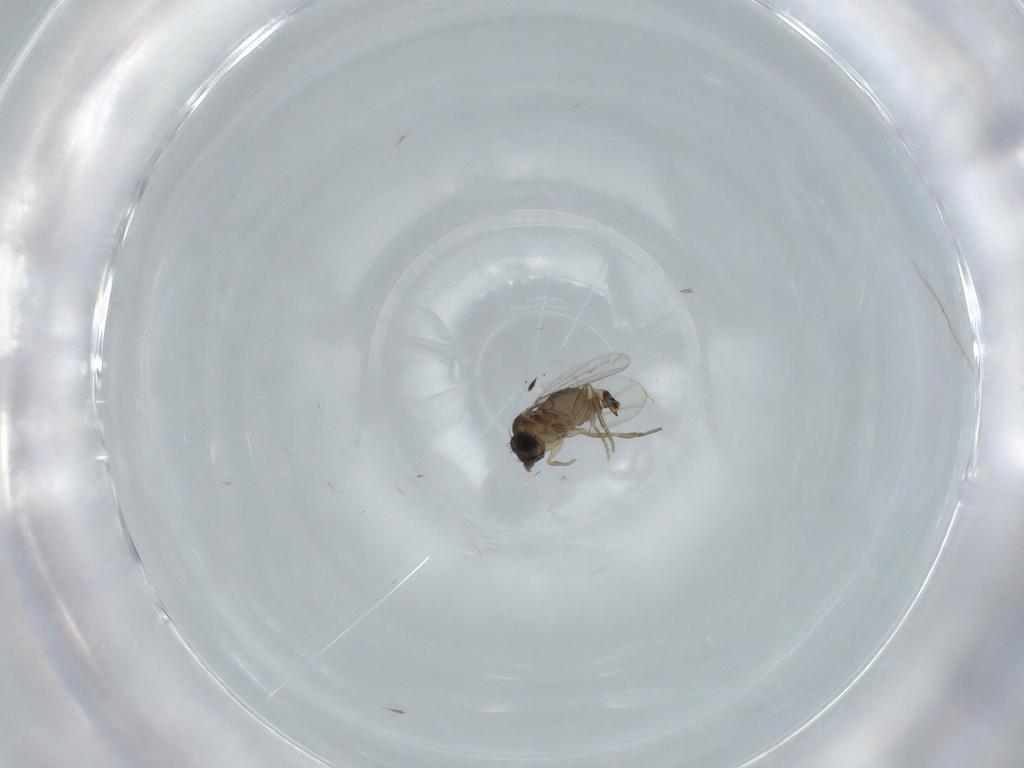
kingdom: Animalia
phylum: Arthropoda
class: Insecta
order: Diptera
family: Phoridae
